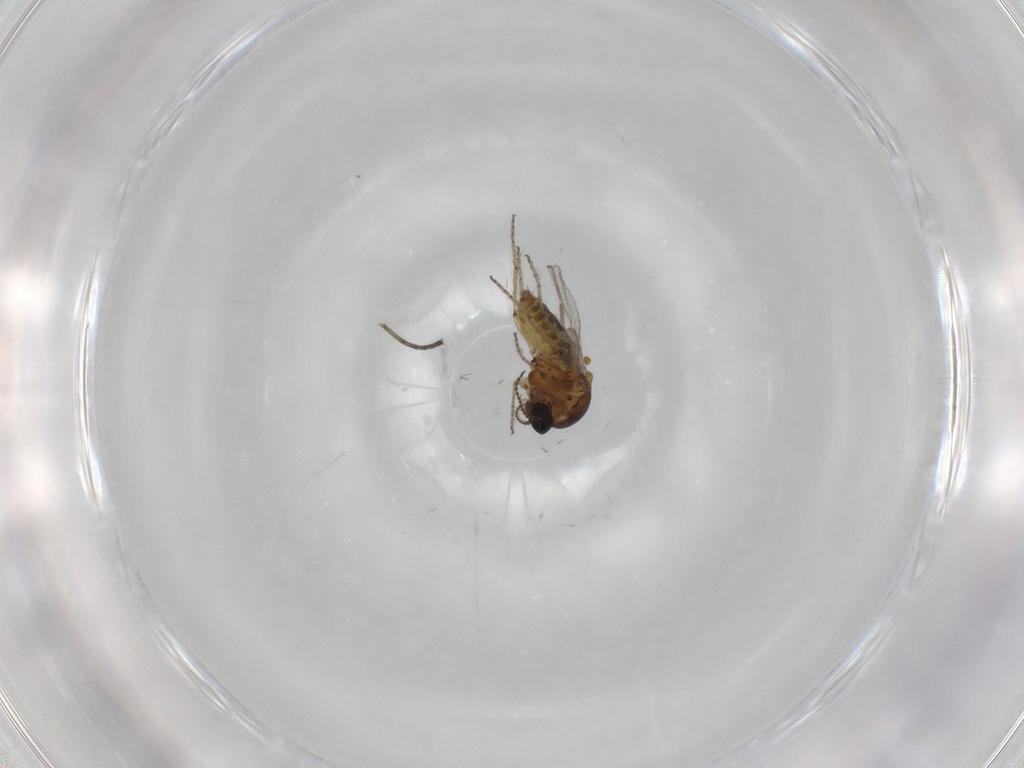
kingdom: Animalia
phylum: Arthropoda
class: Insecta
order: Diptera
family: Ceratopogonidae
